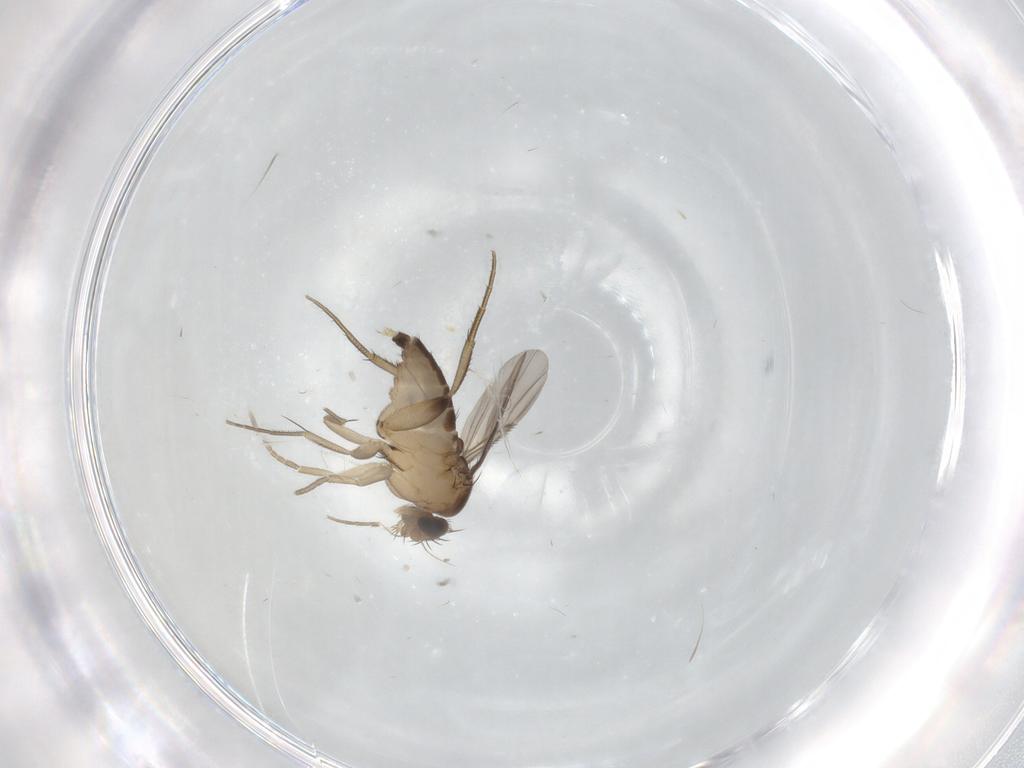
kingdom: Animalia
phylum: Arthropoda
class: Insecta
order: Diptera
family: Phoridae
